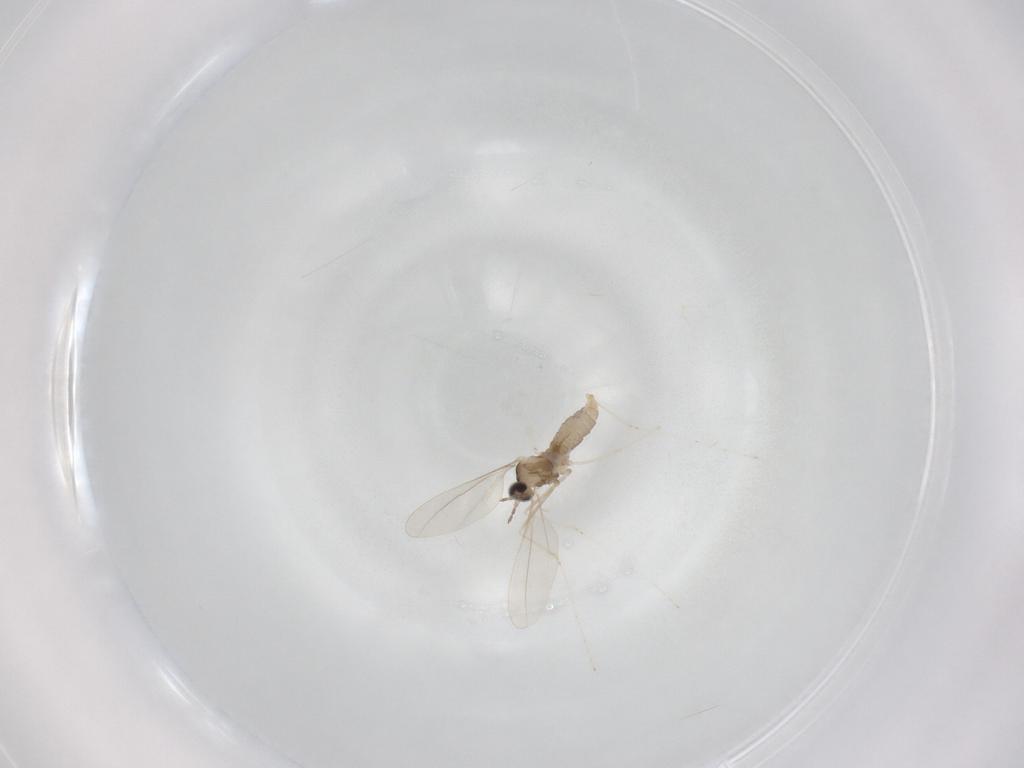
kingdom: Animalia
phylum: Arthropoda
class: Insecta
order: Diptera
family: Cecidomyiidae
